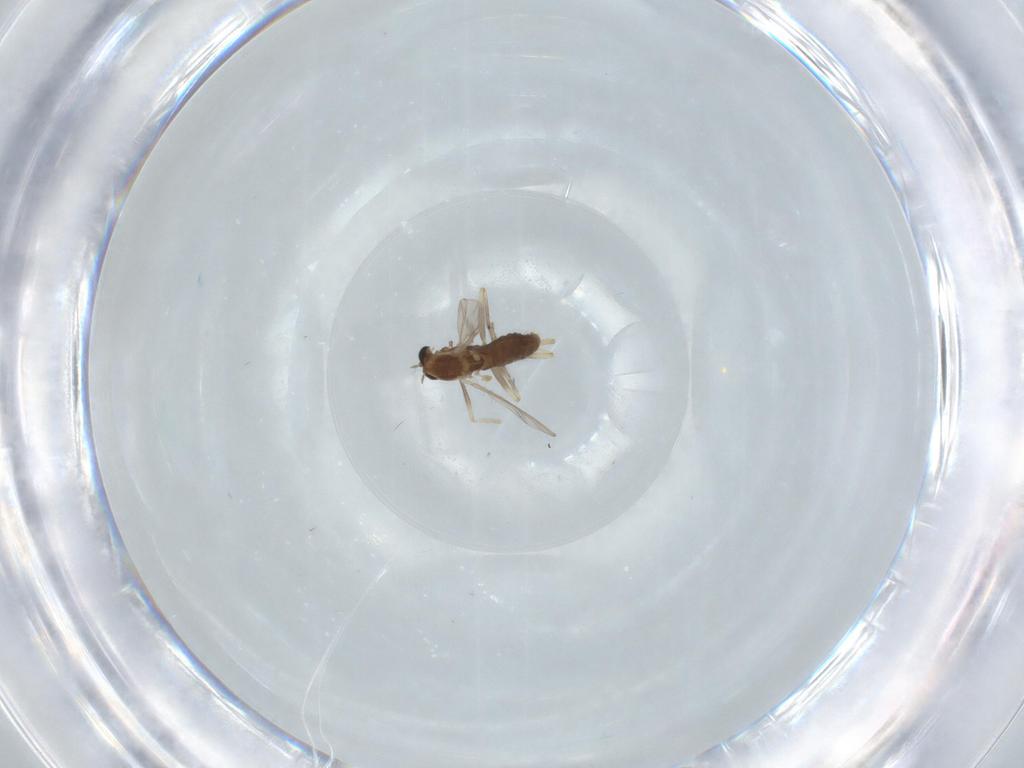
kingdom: Animalia
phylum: Arthropoda
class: Insecta
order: Diptera
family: Chironomidae
